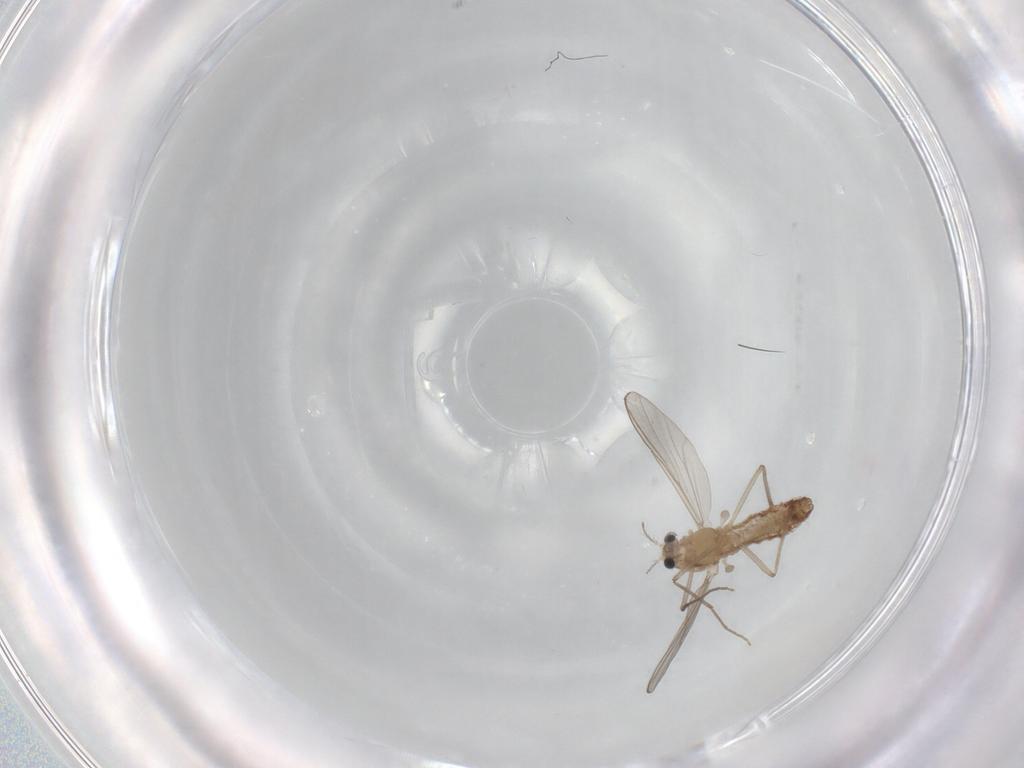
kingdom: Animalia
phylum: Arthropoda
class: Insecta
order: Diptera
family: Chironomidae
